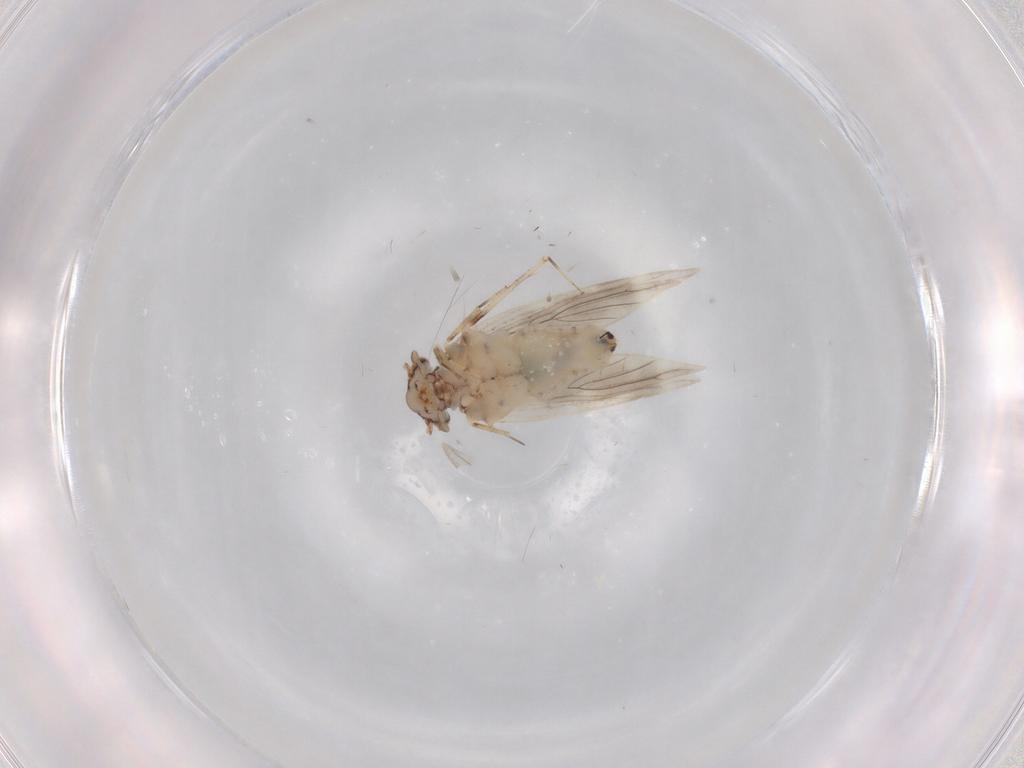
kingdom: Animalia
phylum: Arthropoda
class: Insecta
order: Psocodea
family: Lepidopsocidae
